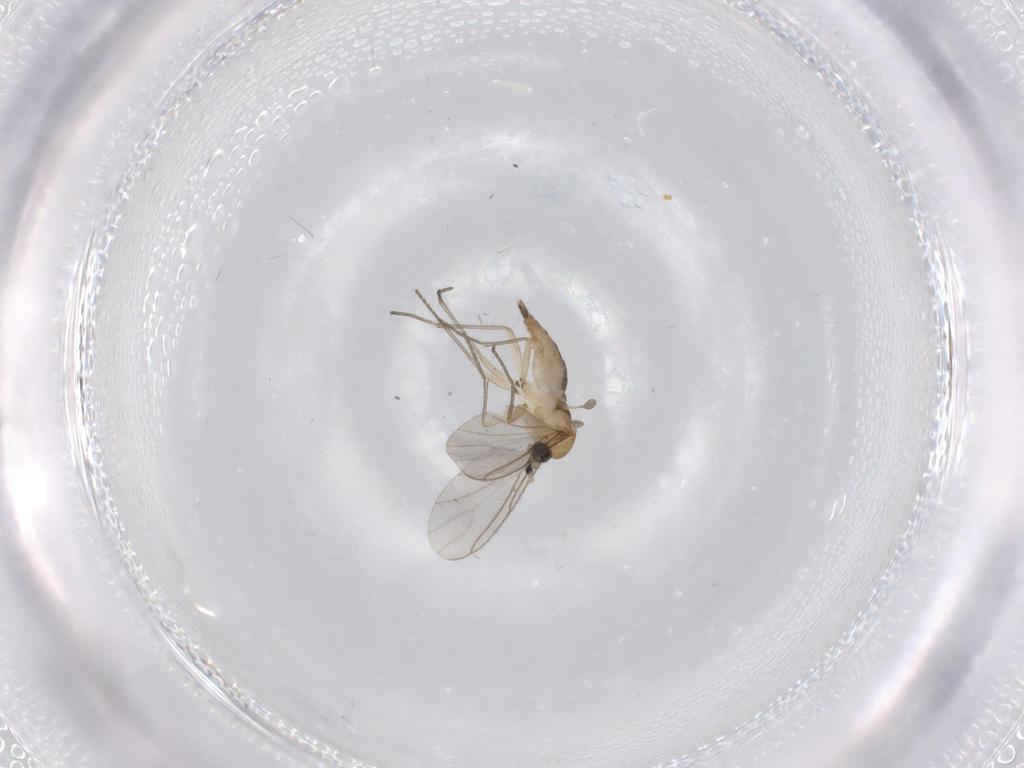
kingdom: Animalia
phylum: Arthropoda
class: Insecta
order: Diptera
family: Sciaridae
